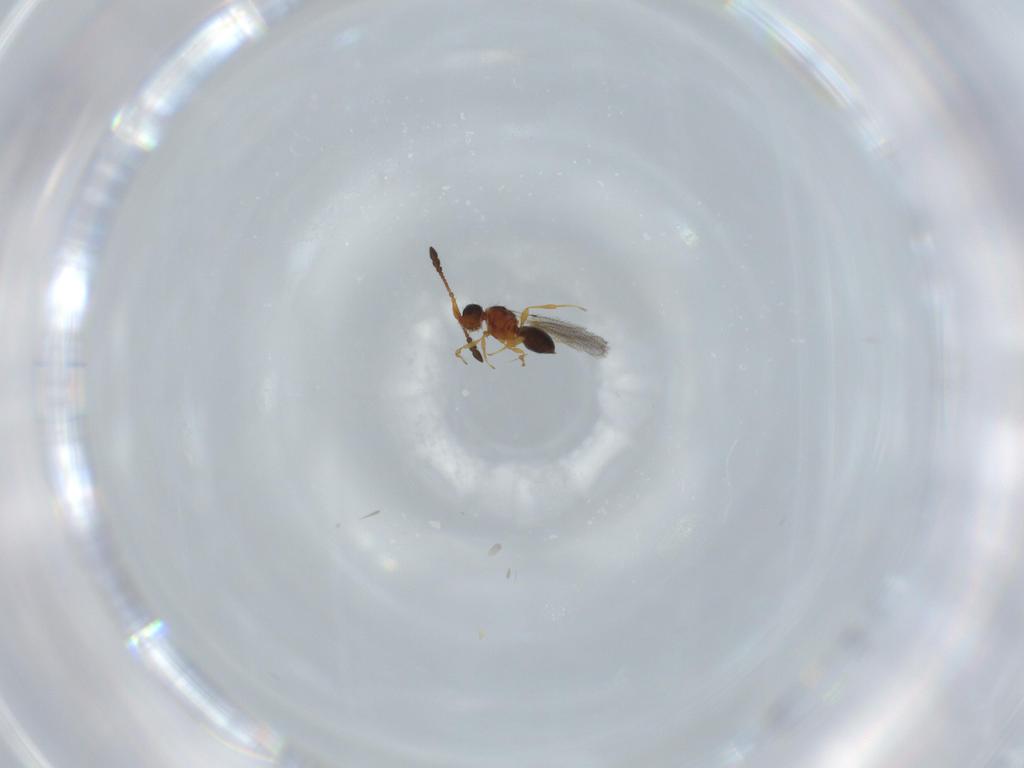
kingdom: Animalia
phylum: Arthropoda
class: Insecta
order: Hymenoptera
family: Diapriidae
